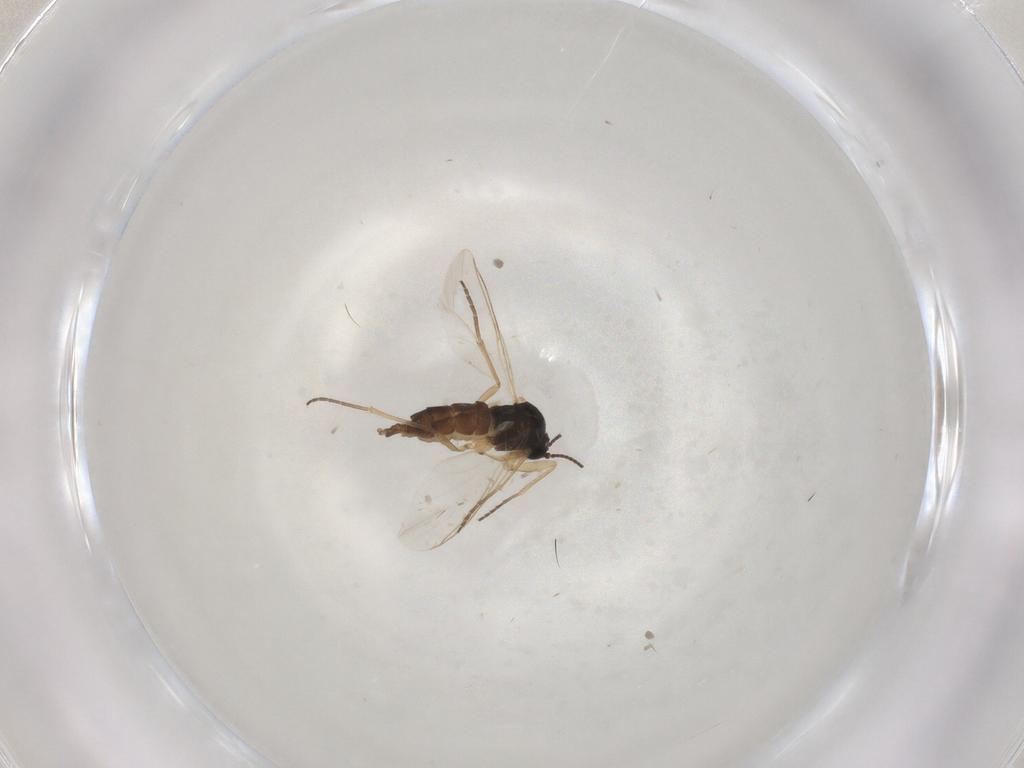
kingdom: Animalia
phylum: Arthropoda
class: Insecta
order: Diptera
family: Sciaridae
